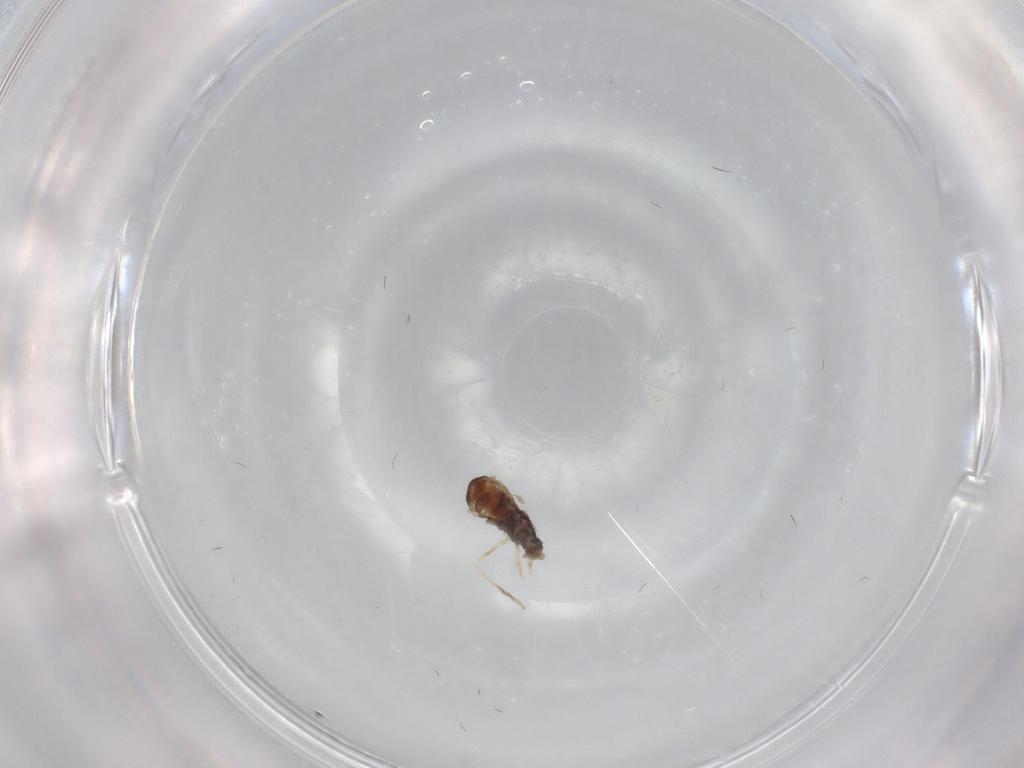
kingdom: Animalia
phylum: Arthropoda
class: Insecta
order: Diptera
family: Cecidomyiidae
